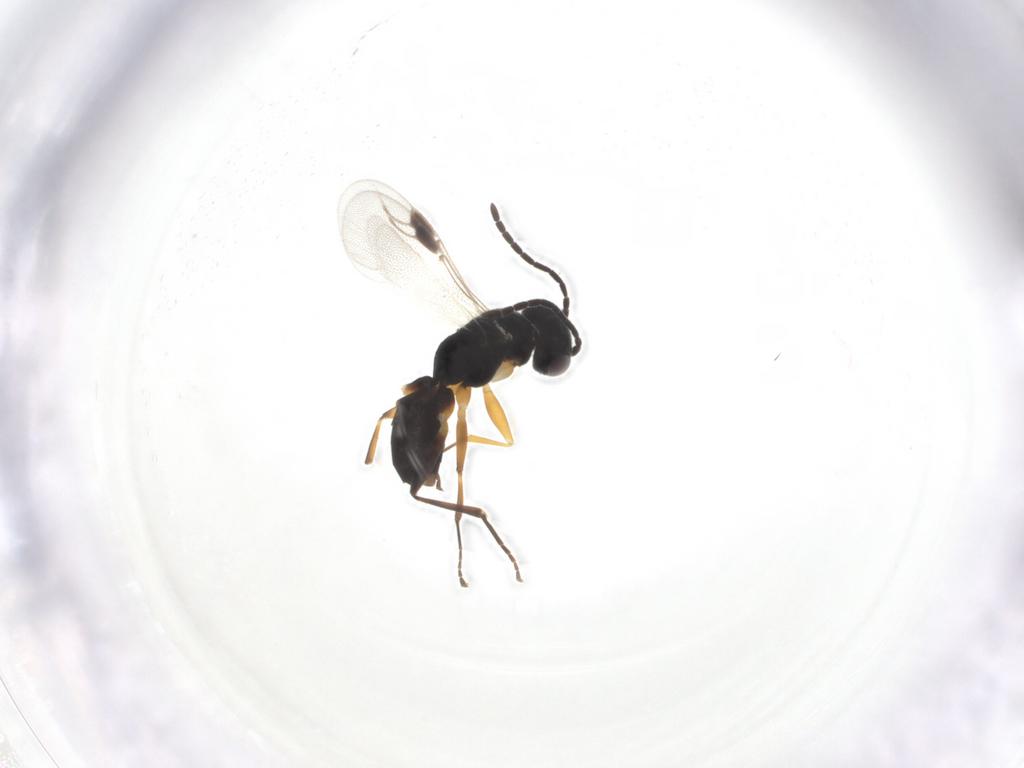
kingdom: Animalia
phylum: Arthropoda
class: Insecta
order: Hymenoptera
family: Dryinidae
